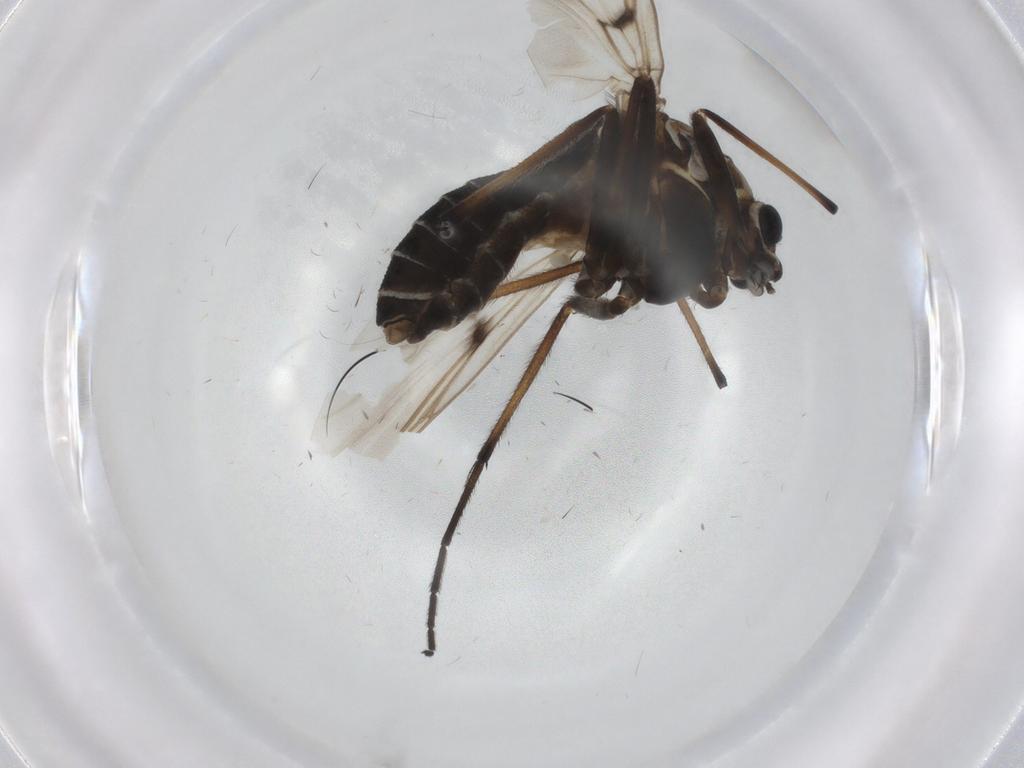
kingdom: Animalia
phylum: Arthropoda
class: Insecta
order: Diptera
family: Chironomidae
